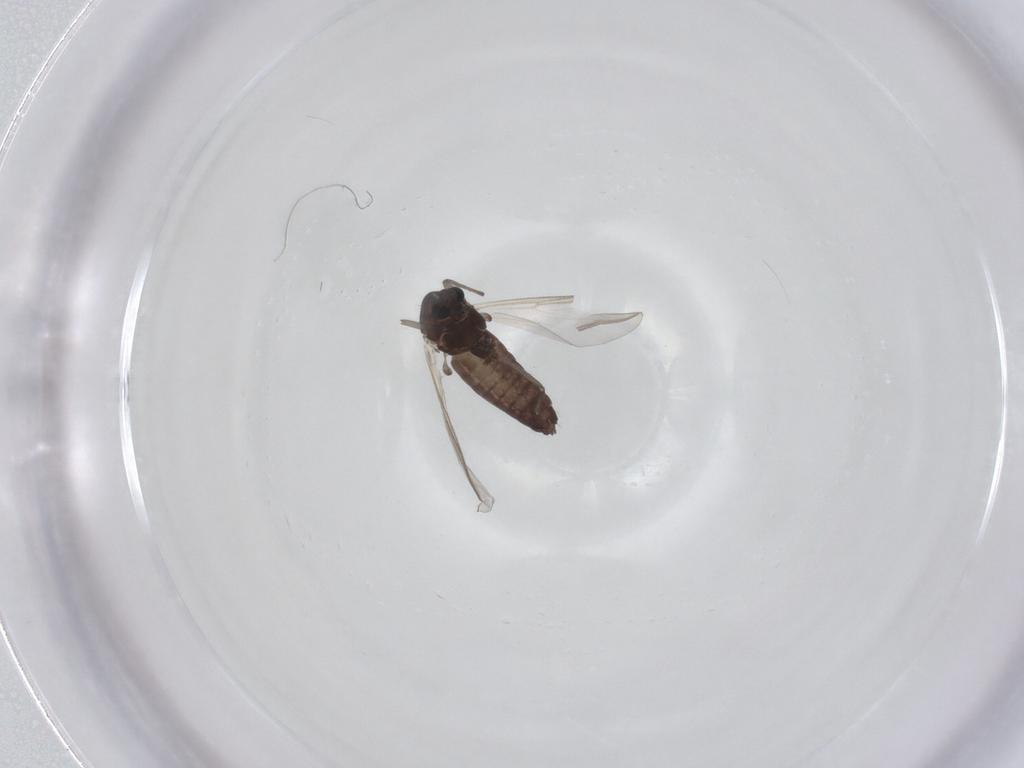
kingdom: Animalia
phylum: Arthropoda
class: Insecta
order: Diptera
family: Chironomidae
